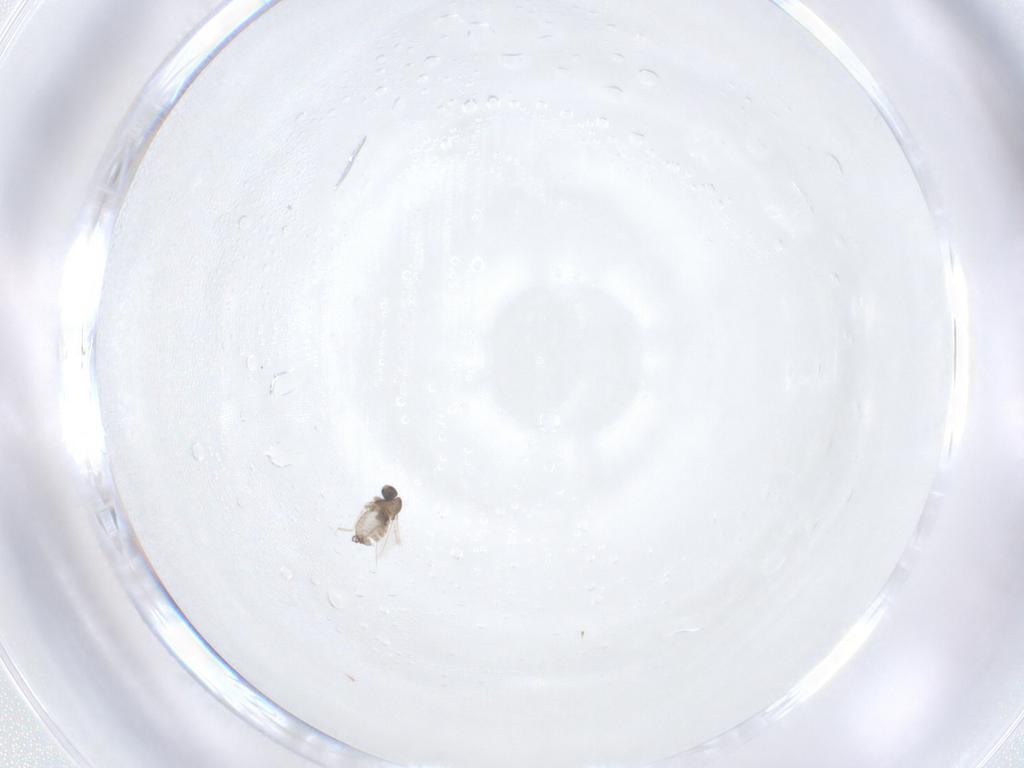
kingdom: Animalia
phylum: Arthropoda
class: Insecta
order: Diptera
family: Cecidomyiidae
